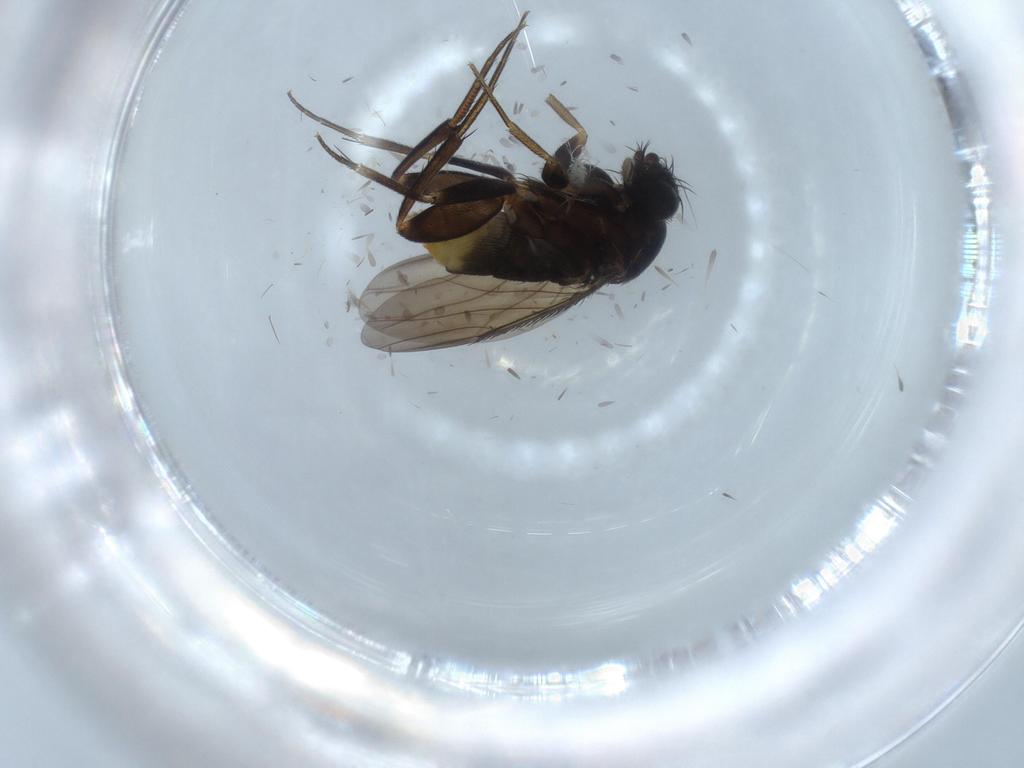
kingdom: Animalia
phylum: Arthropoda
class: Insecta
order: Diptera
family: Phoridae
